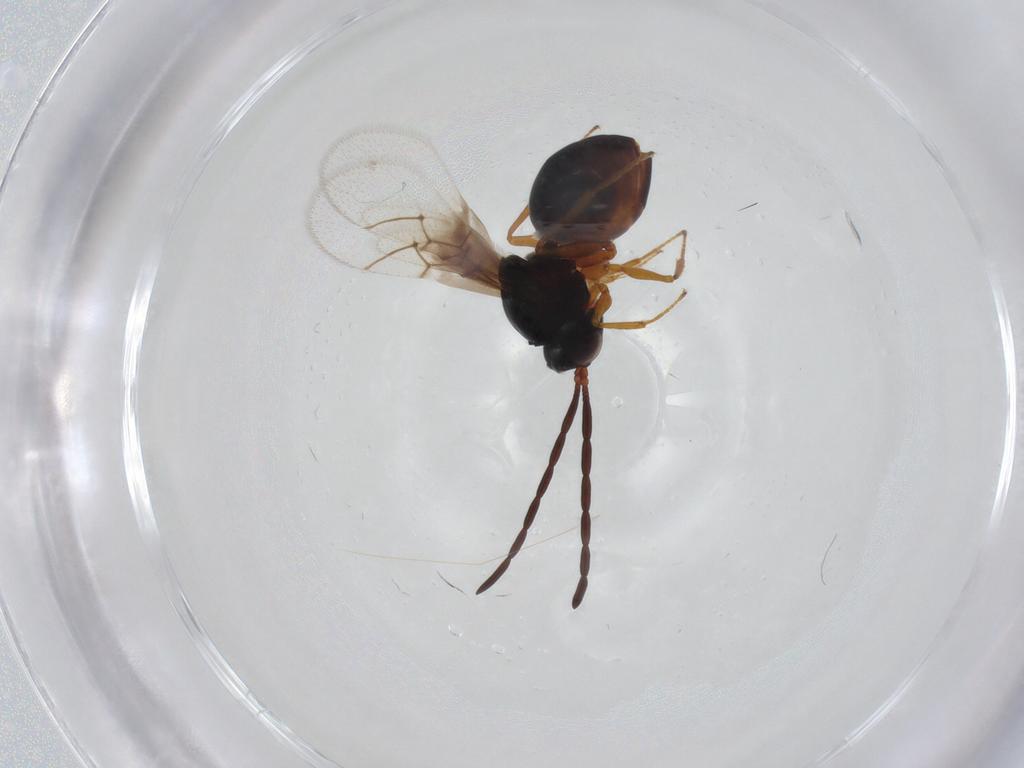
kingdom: Animalia
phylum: Arthropoda
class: Insecta
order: Hymenoptera
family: Figitidae
